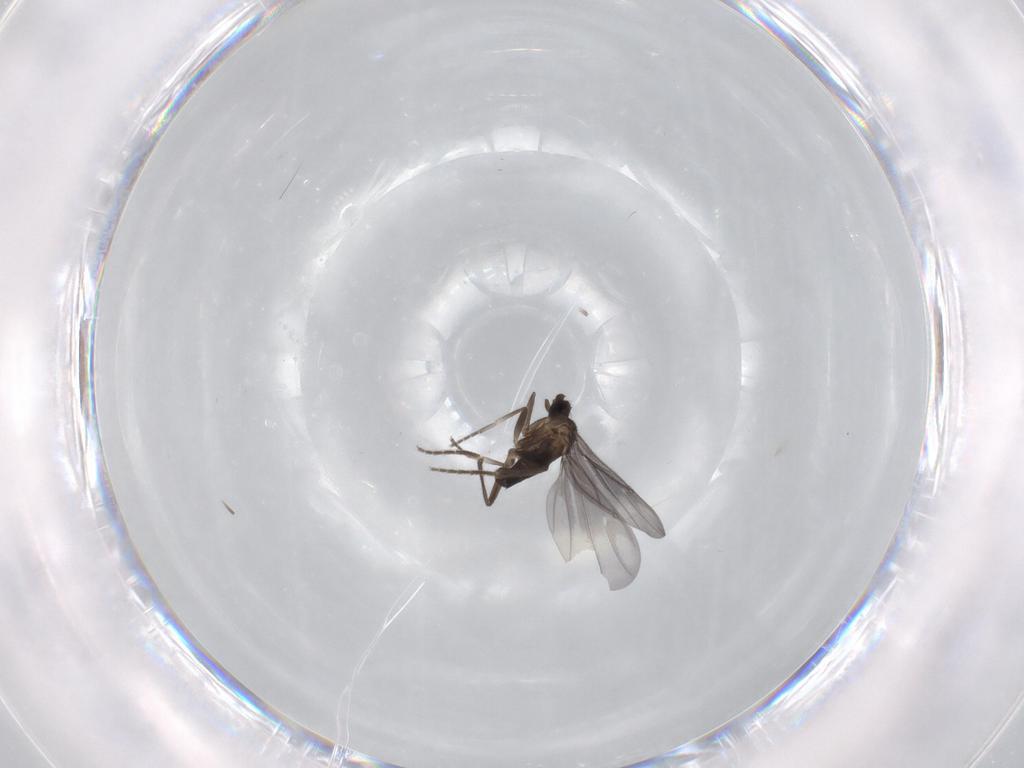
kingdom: Animalia
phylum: Arthropoda
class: Insecta
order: Diptera
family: Phoridae
